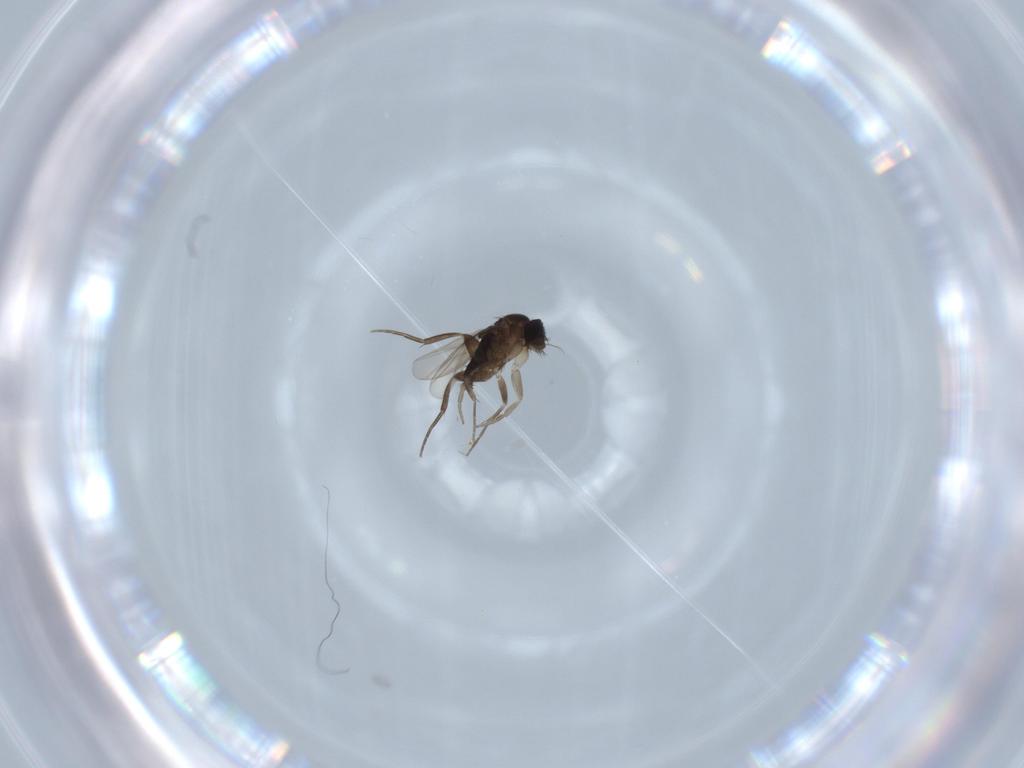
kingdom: Animalia
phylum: Arthropoda
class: Insecta
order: Diptera
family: Phoridae
